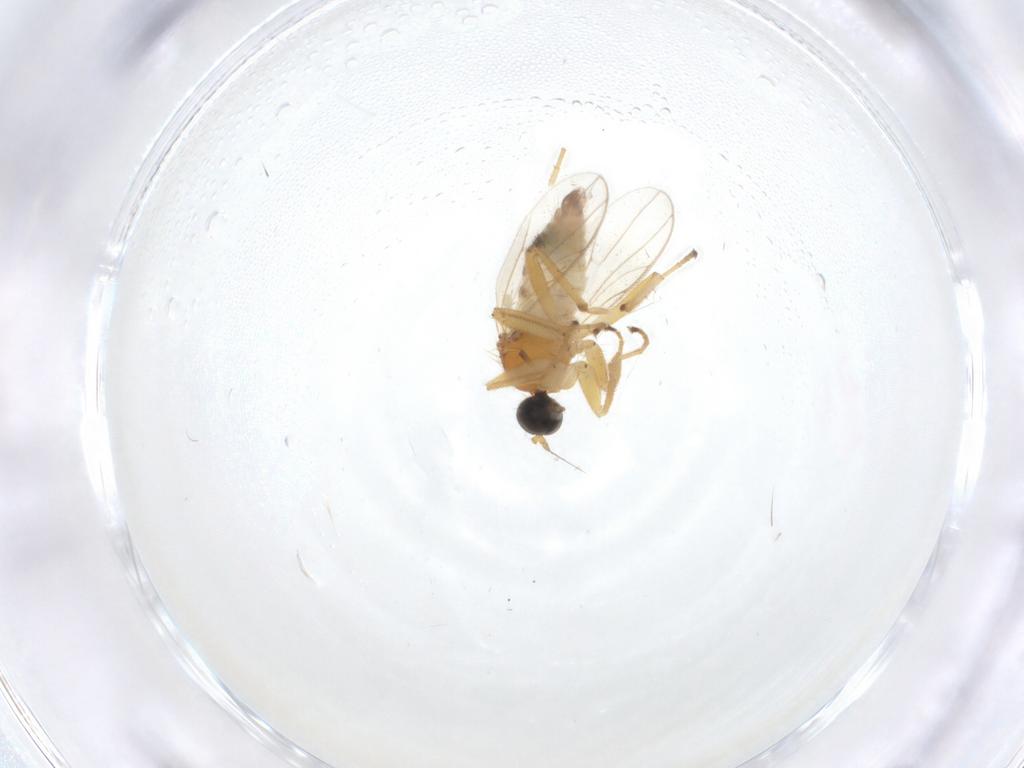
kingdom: Animalia
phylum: Arthropoda
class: Insecta
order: Diptera
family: Hybotidae
